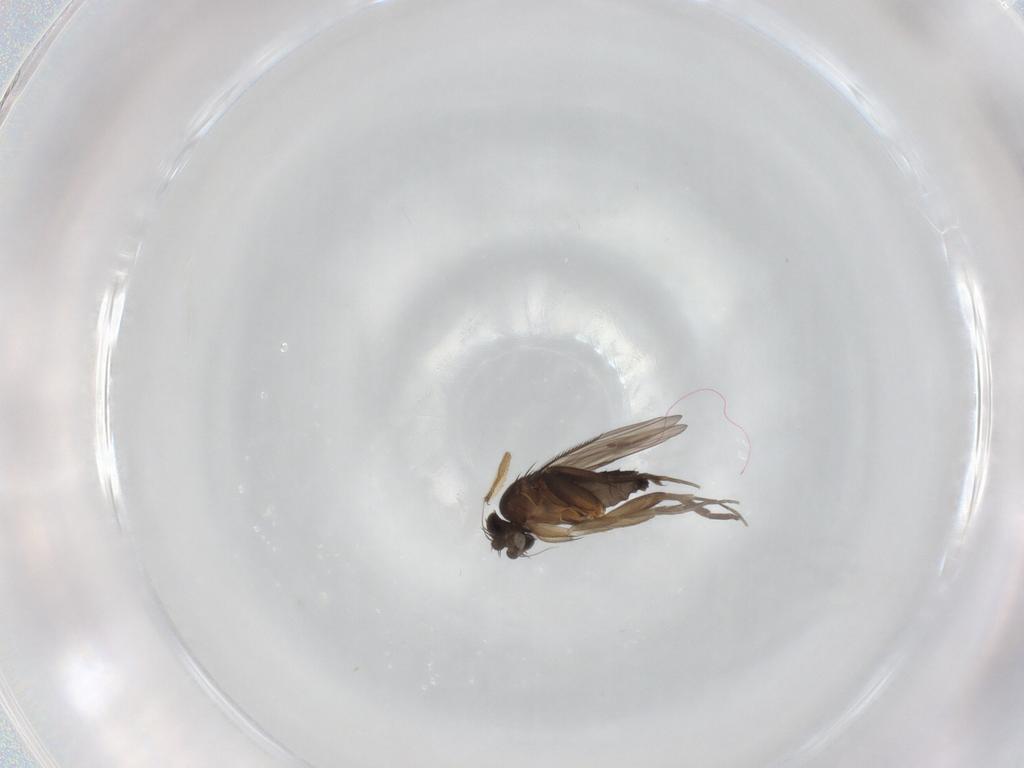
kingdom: Animalia
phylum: Arthropoda
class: Insecta
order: Diptera
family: Phoridae
